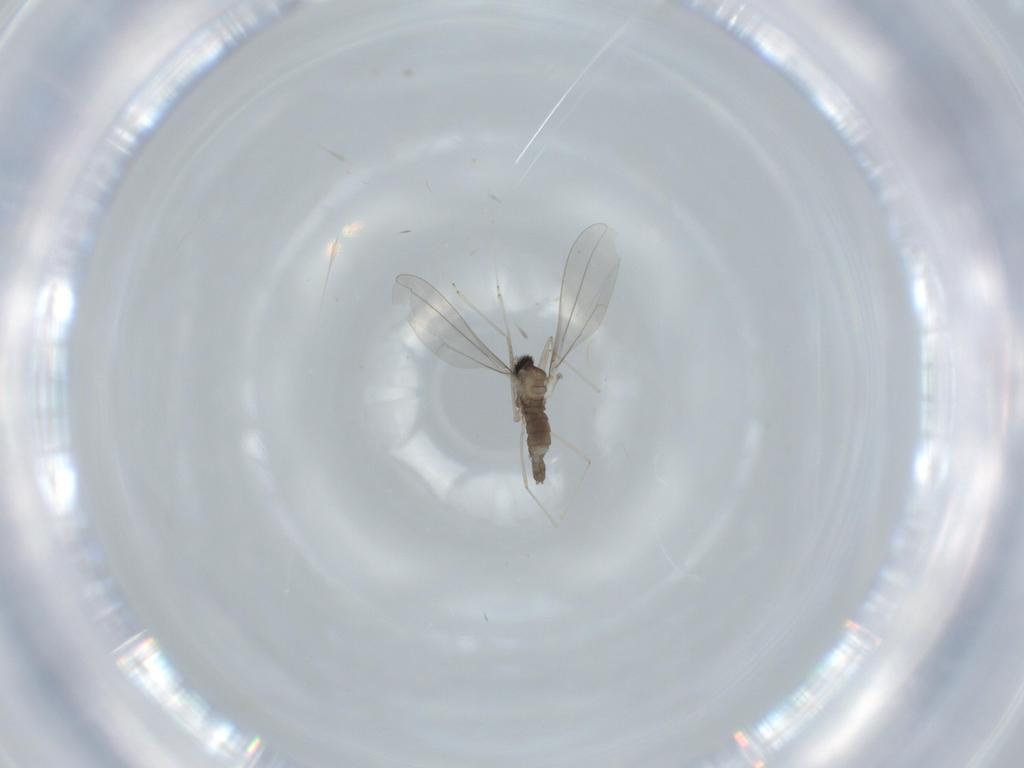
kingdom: Animalia
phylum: Arthropoda
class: Insecta
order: Diptera
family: Cecidomyiidae
